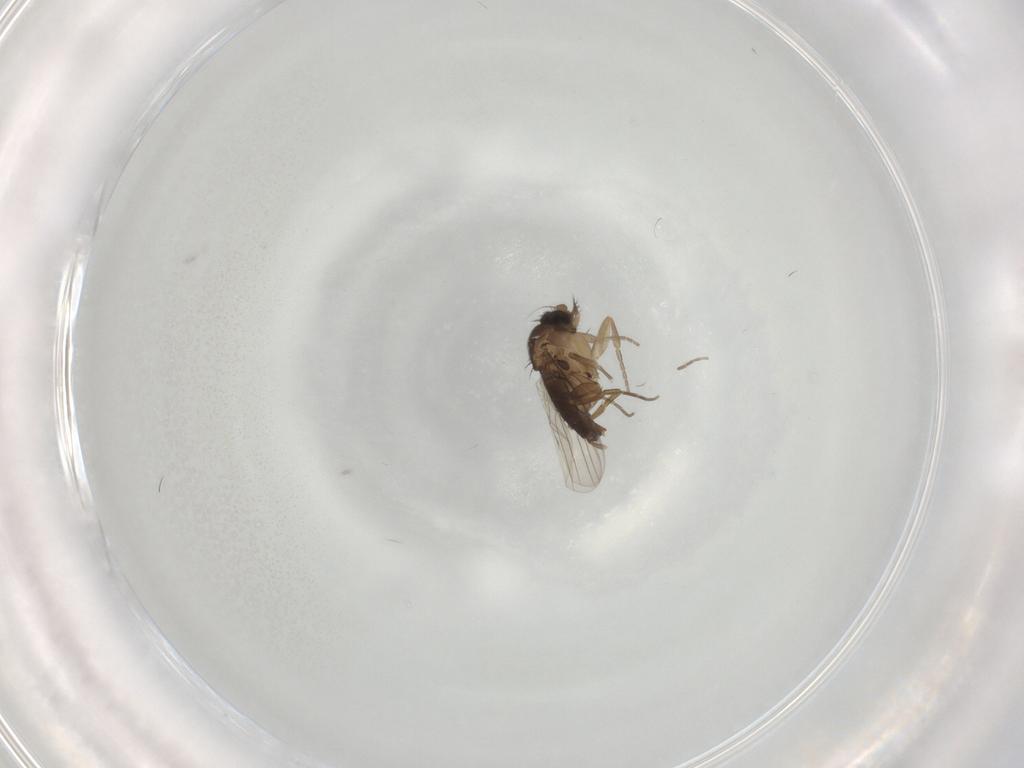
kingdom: Animalia
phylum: Arthropoda
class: Insecta
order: Diptera
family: Phoridae
